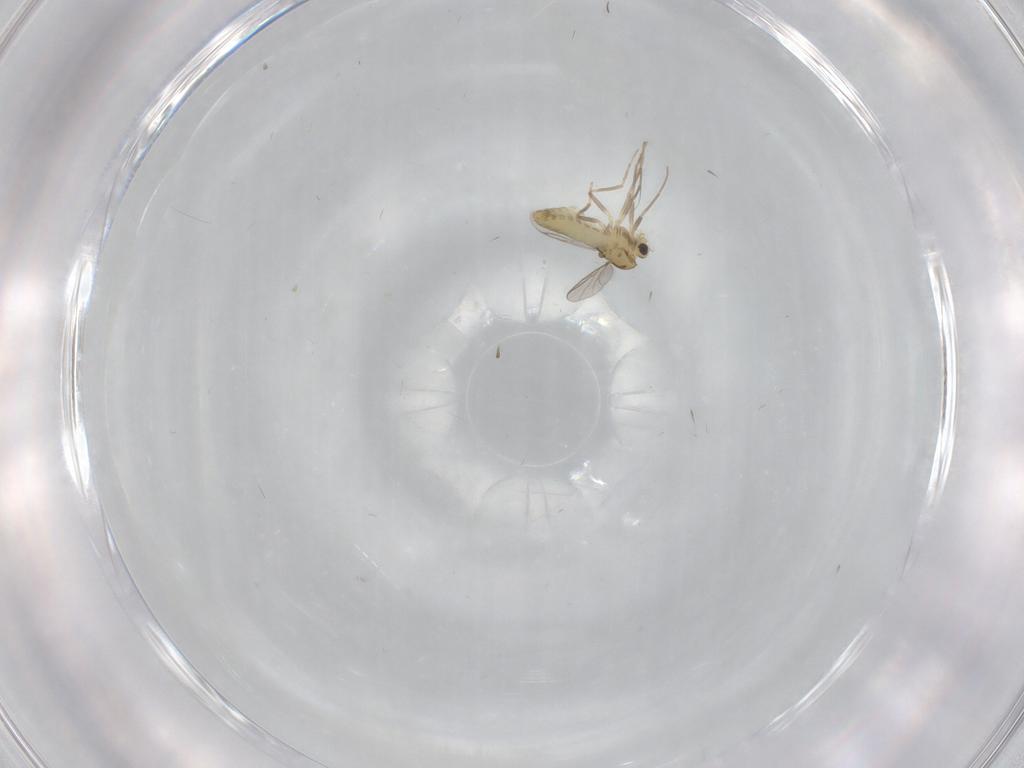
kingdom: Animalia
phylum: Arthropoda
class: Insecta
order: Diptera
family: Chironomidae
